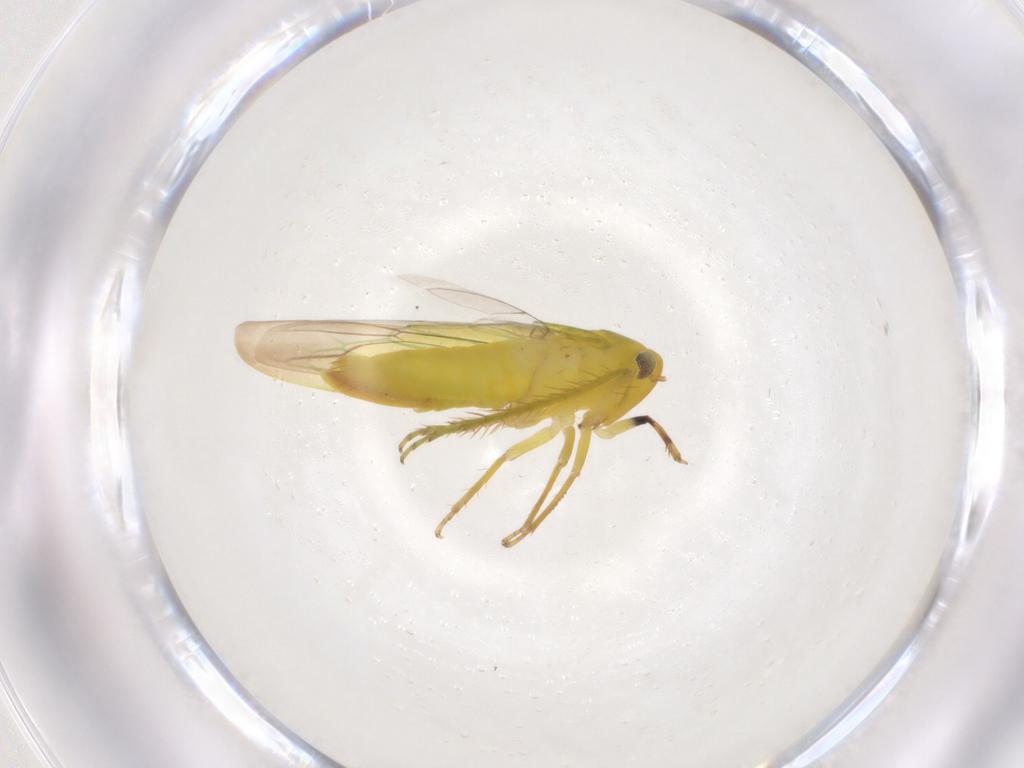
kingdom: Animalia
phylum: Arthropoda
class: Insecta
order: Hemiptera
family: Cicadellidae
